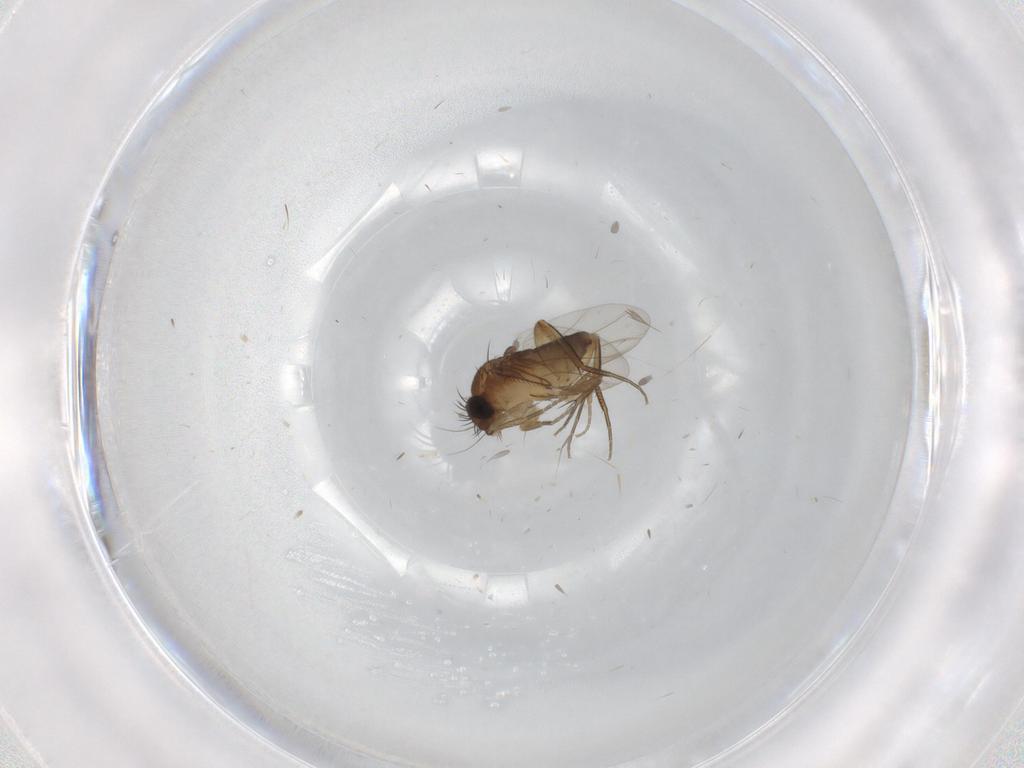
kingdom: Animalia
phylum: Arthropoda
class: Insecta
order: Diptera
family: Phoridae
